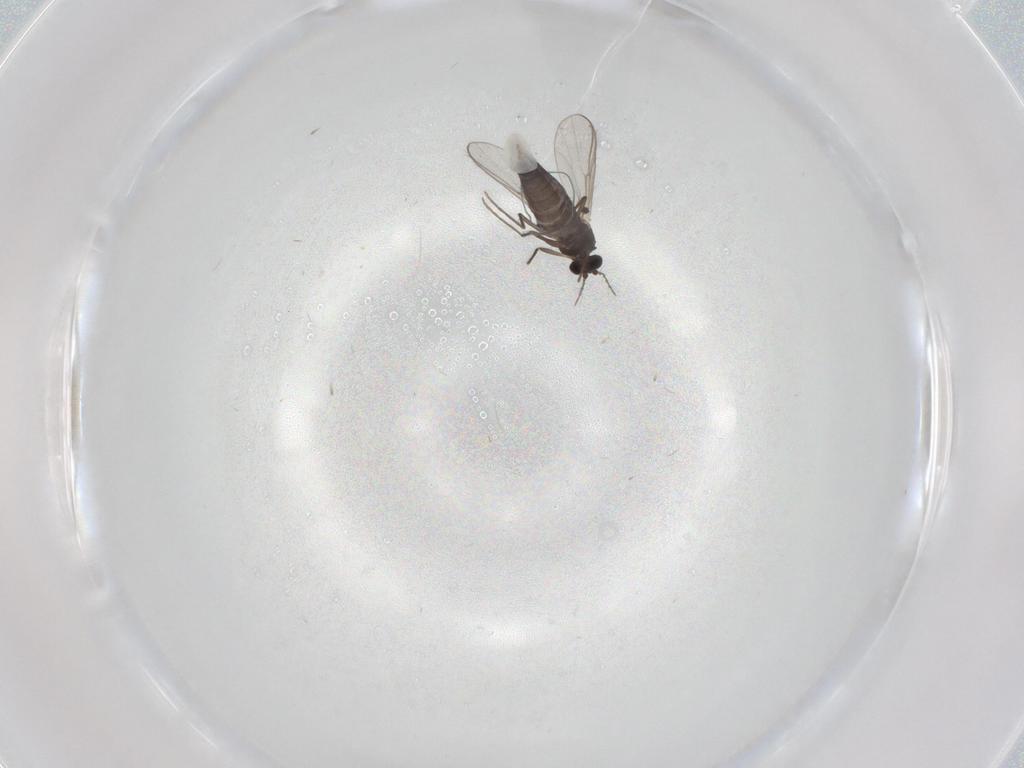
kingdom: Animalia
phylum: Arthropoda
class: Insecta
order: Diptera
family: Chironomidae
